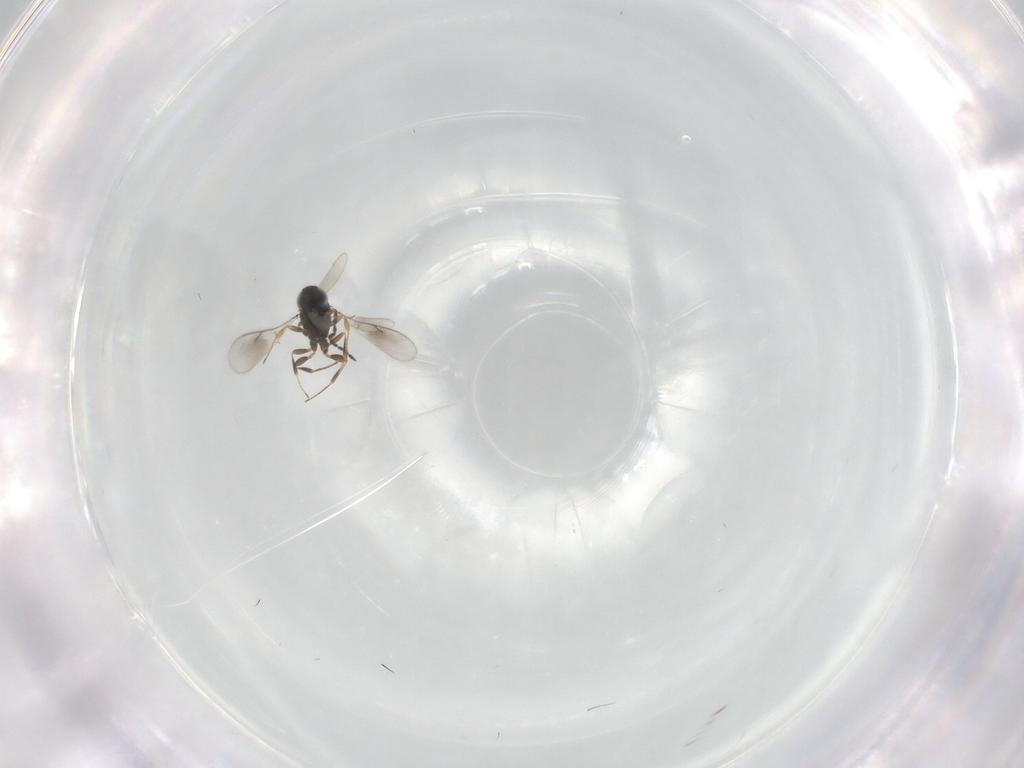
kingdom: Animalia
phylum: Arthropoda
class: Insecta
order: Hymenoptera
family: Scelionidae
